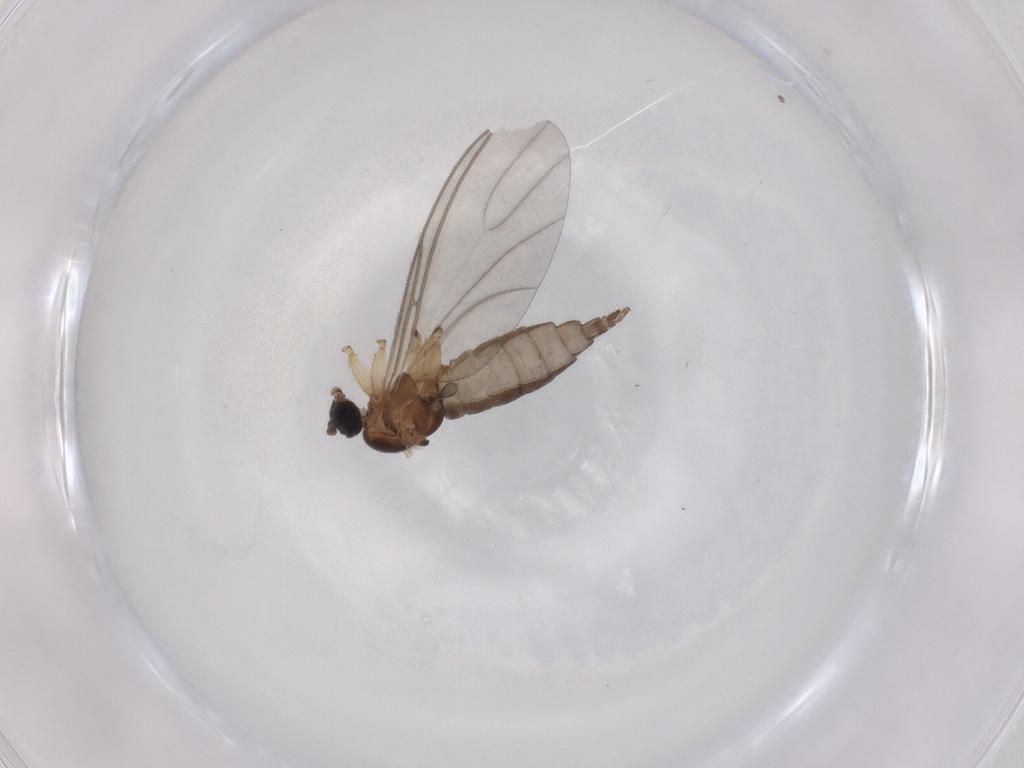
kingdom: Animalia
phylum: Arthropoda
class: Insecta
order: Diptera
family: Sciaridae
